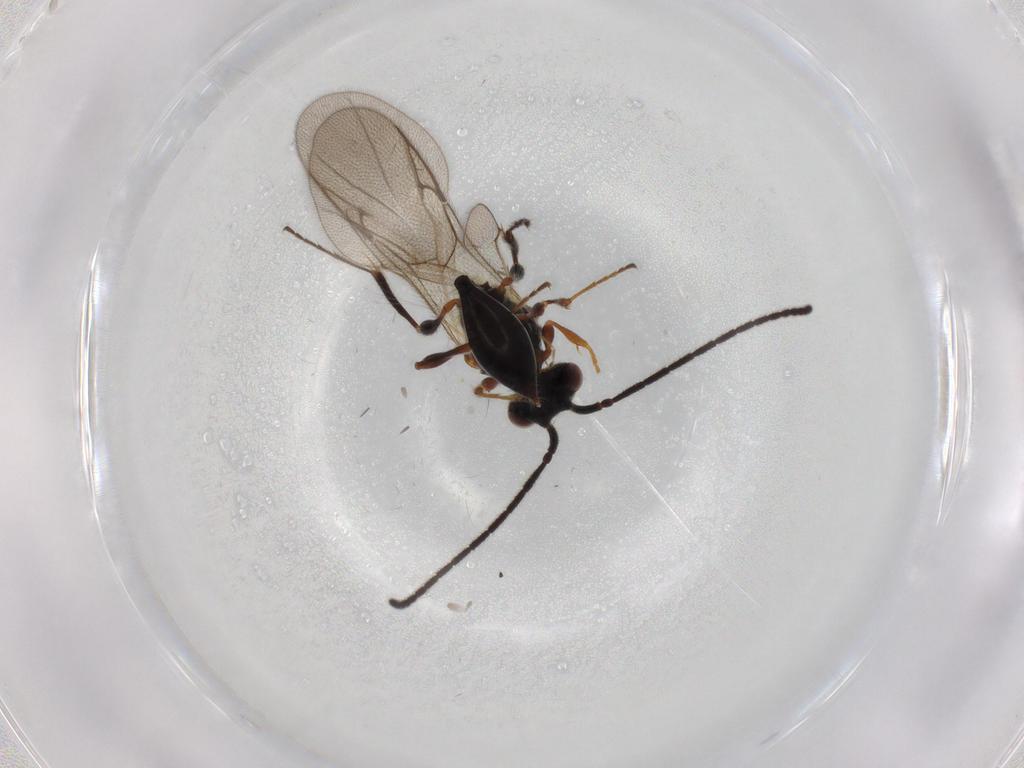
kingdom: Animalia
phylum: Arthropoda
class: Insecta
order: Hymenoptera
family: Diapriidae
